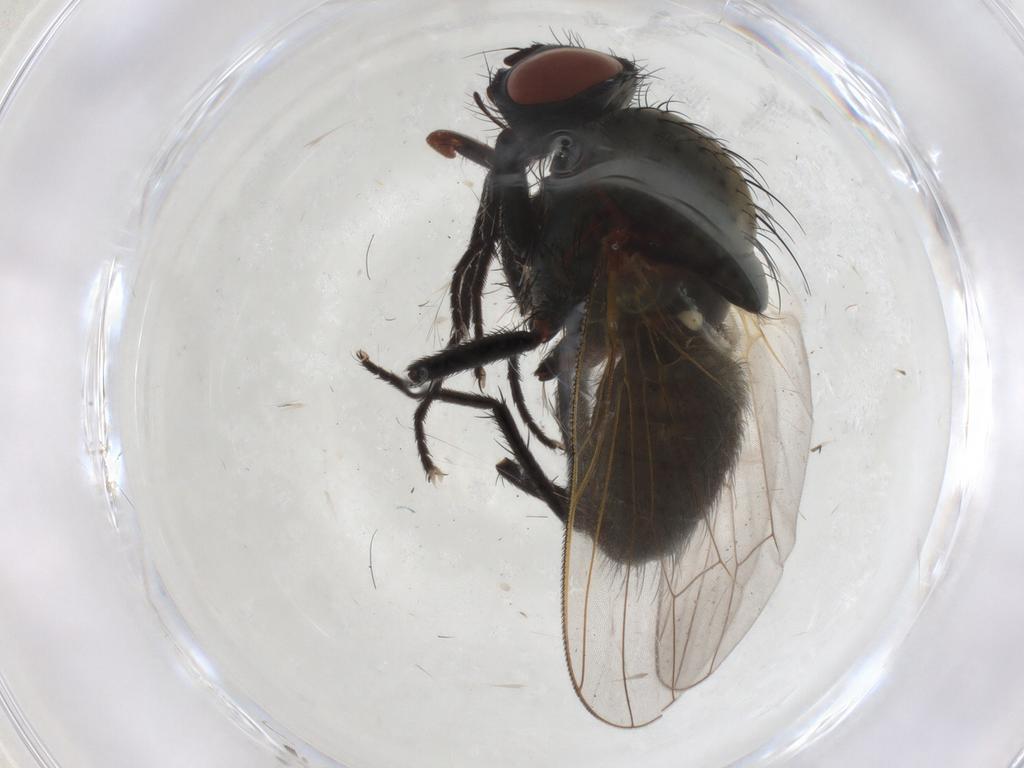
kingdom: Animalia
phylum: Arthropoda
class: Insecta
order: Diptera
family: Anthomyiidae
